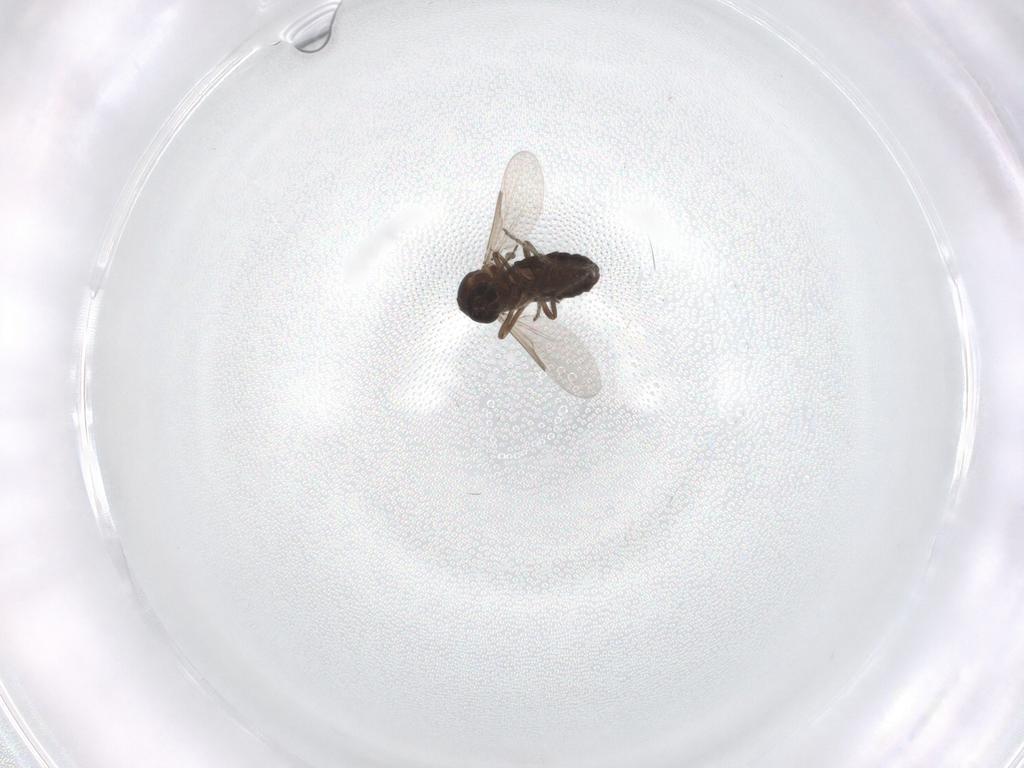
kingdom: Animalia
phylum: Arthropoda
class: Insecta
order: Diptera
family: Ceratopogonidae
